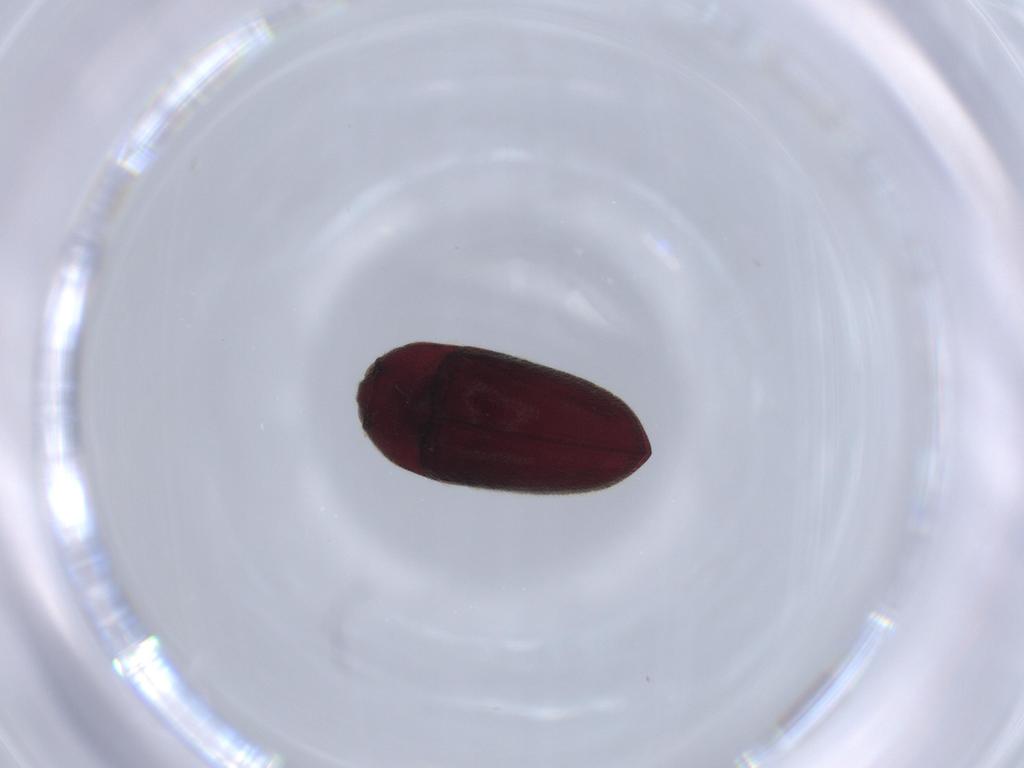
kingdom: Animalia
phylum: Arthropoda
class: Insecta
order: Coleoptera
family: Throscidae
